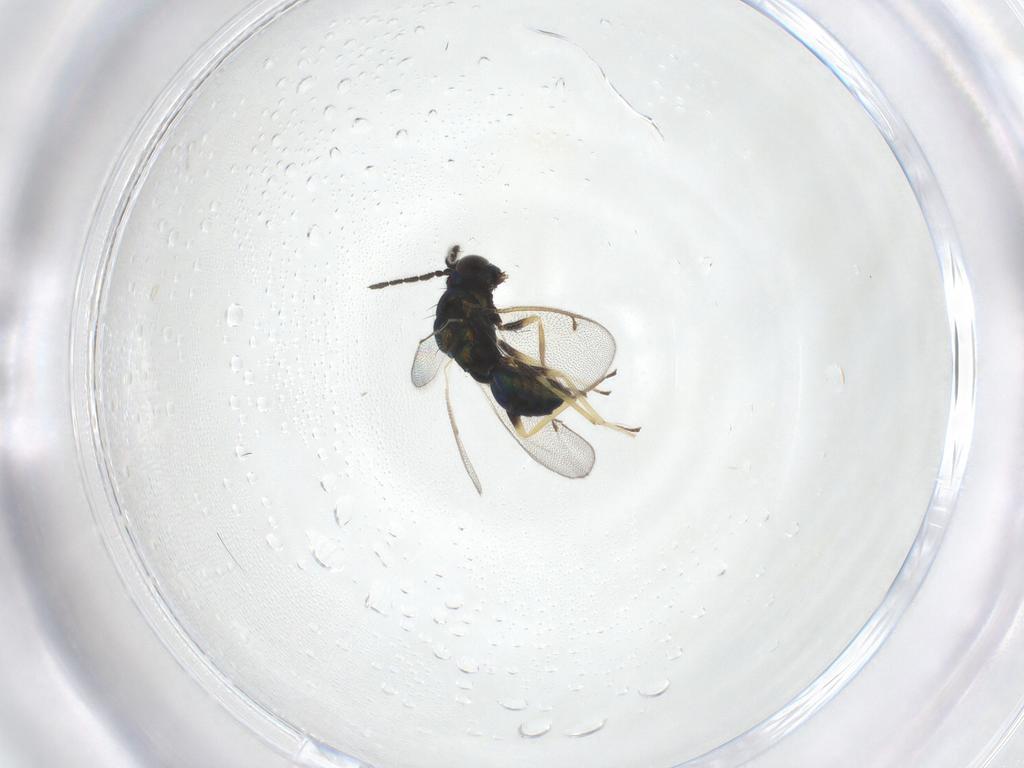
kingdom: Animalia
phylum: Arthropoda
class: Insecta
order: Hymenoptera
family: Eulophidae
